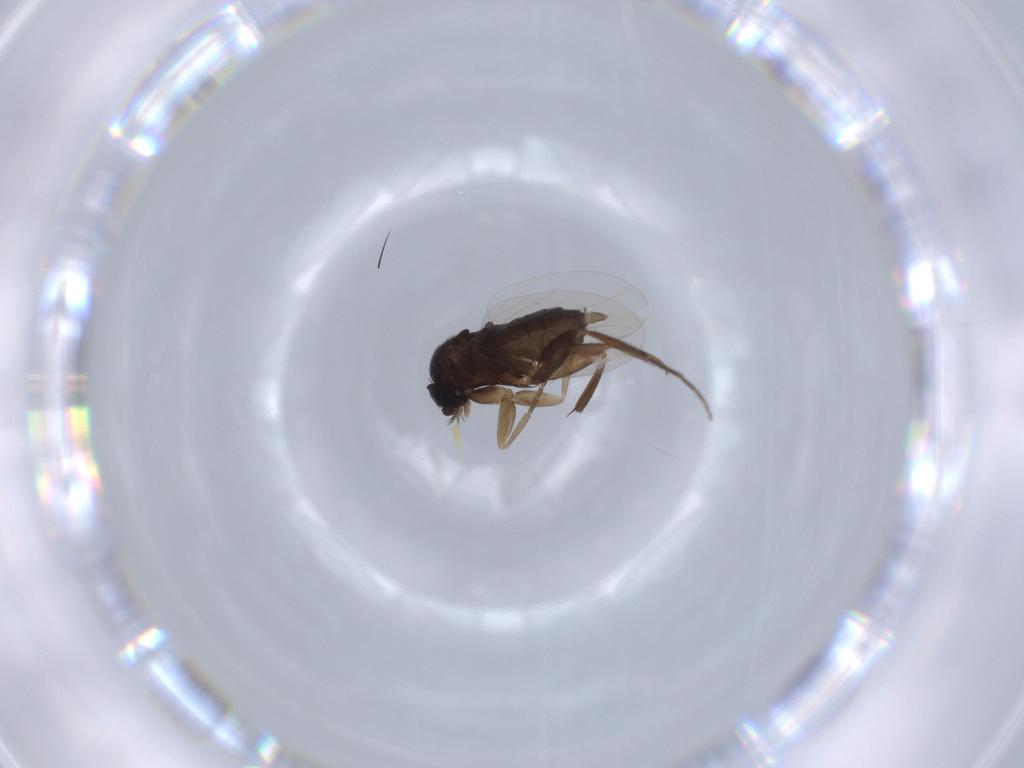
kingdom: Animalia
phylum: Arthropoda
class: Insecta
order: Diptera
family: Phoridae
